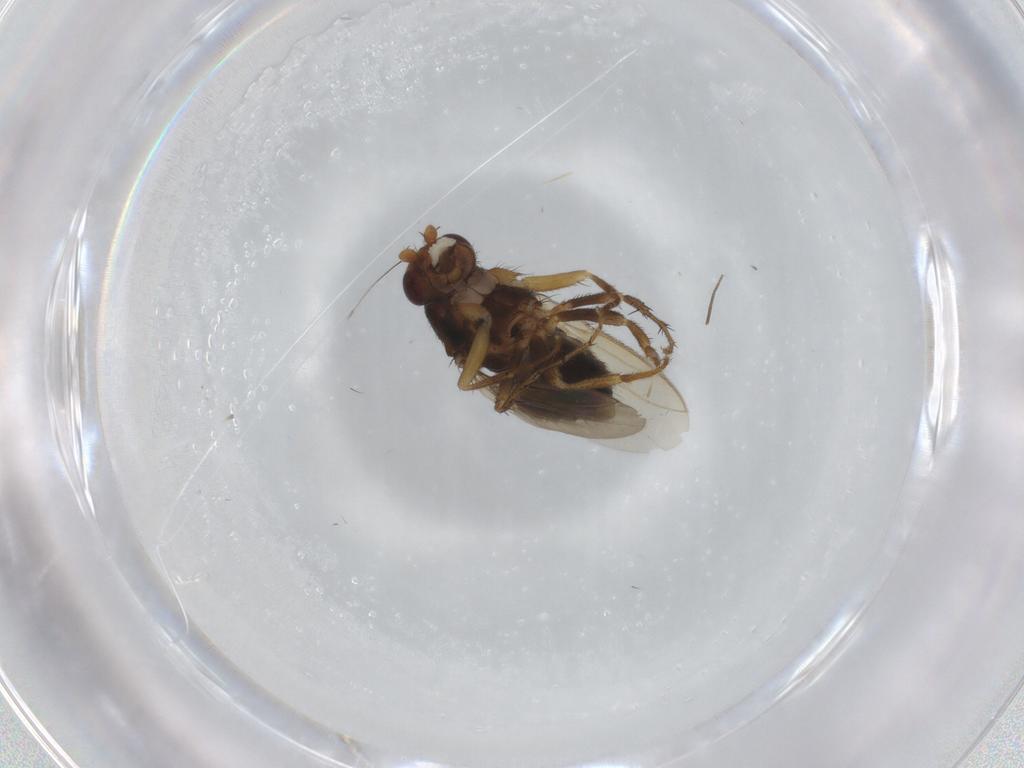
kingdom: Animalia
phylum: Arthropoda
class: Insecta
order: Diptera
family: Sphaeroceridae
